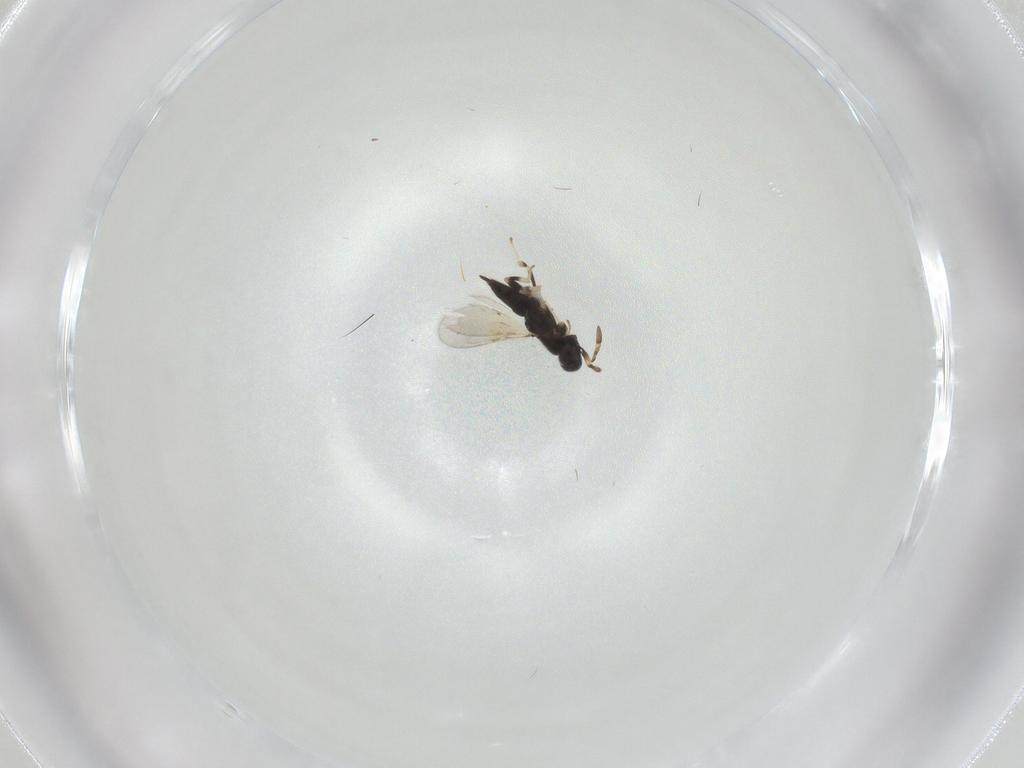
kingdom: Animalia
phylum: Arthropoda
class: Insecta
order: Hymenoptera
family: Encyrtidae
